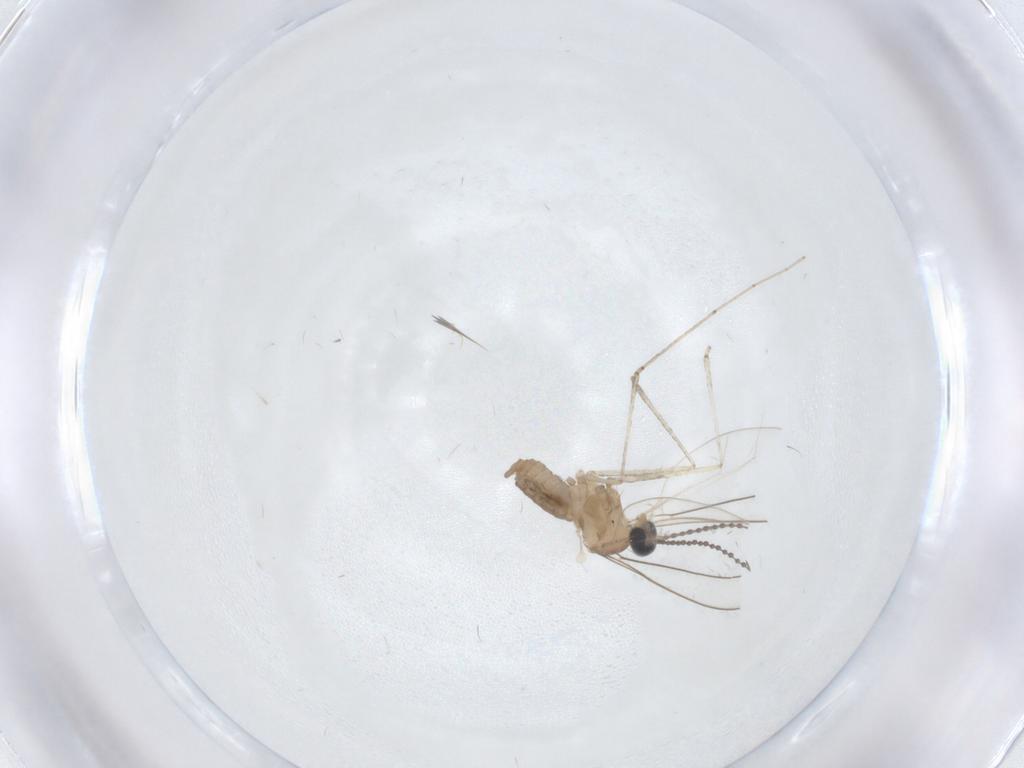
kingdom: Animalia
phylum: Arthropoda
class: Insecta
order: Diptera
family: Cecidomyiidae
